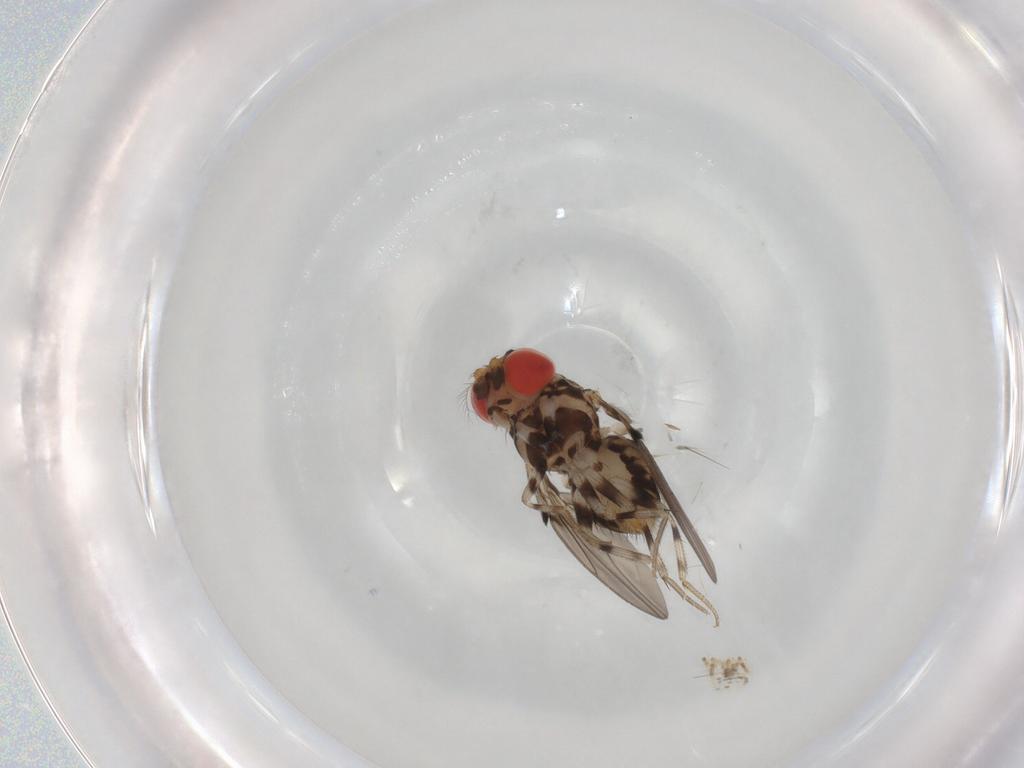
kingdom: Animalia
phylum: Arthropoda
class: Insecta
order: Diptera
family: Drosophilidae
